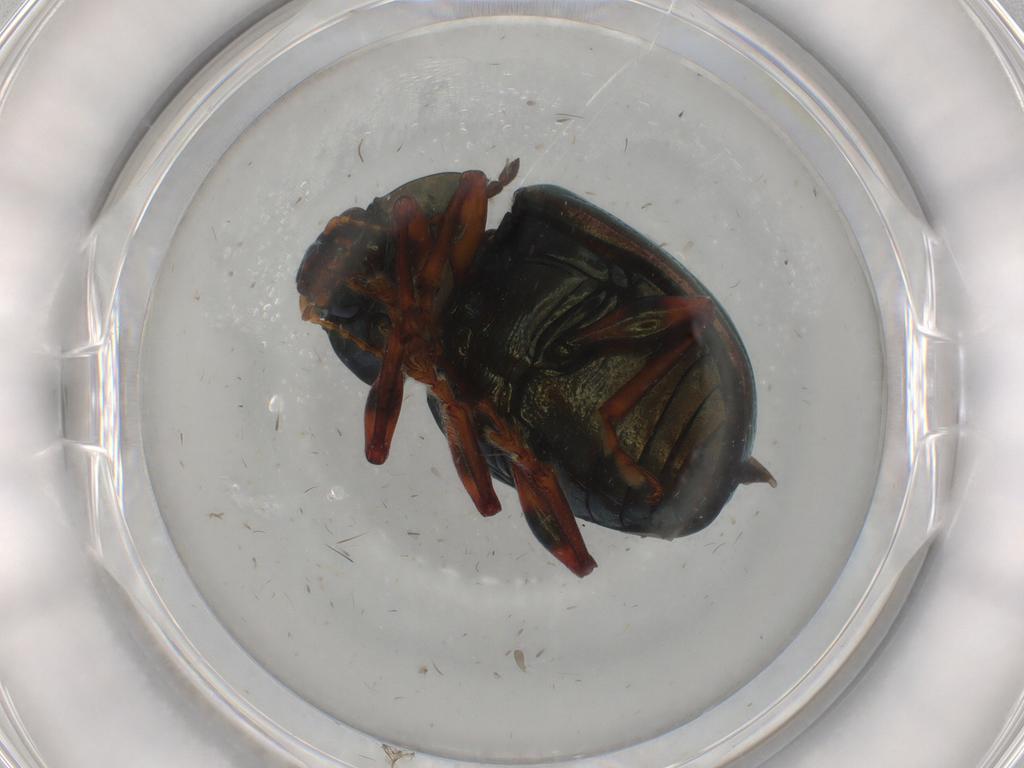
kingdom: Animalia
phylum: Arthropoda
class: Insecta
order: Coleoptera
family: Chrysomelidae
